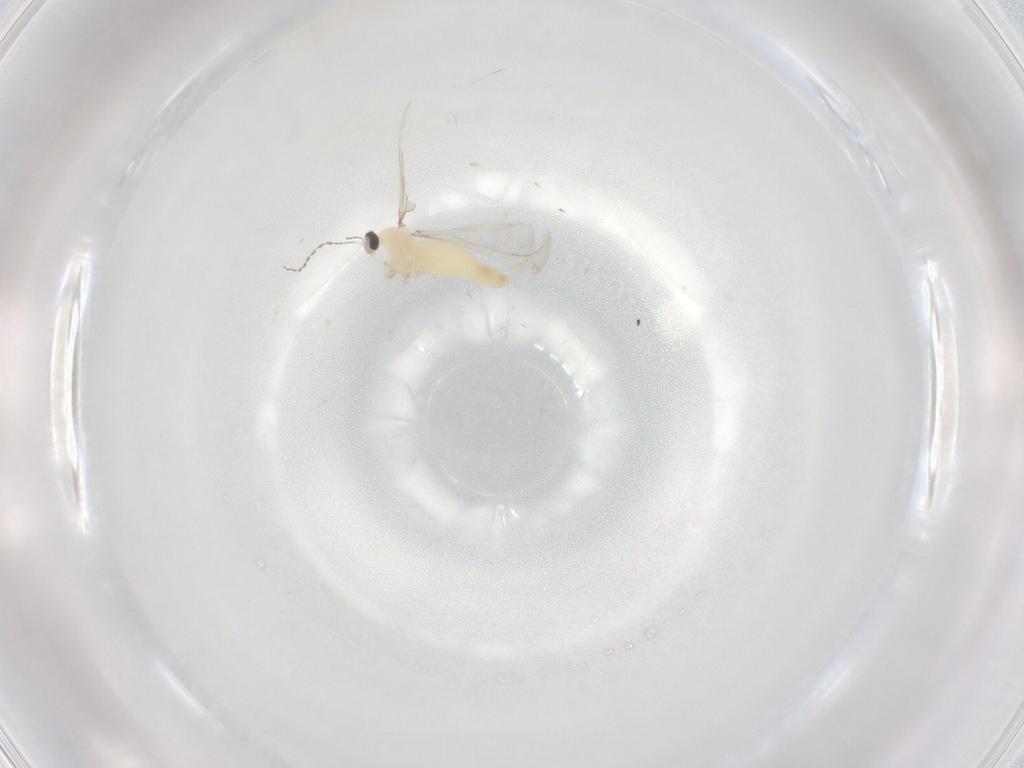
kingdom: Animalia
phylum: Arthropoda
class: Insecta
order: Diptera
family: Cecidomyiidae
